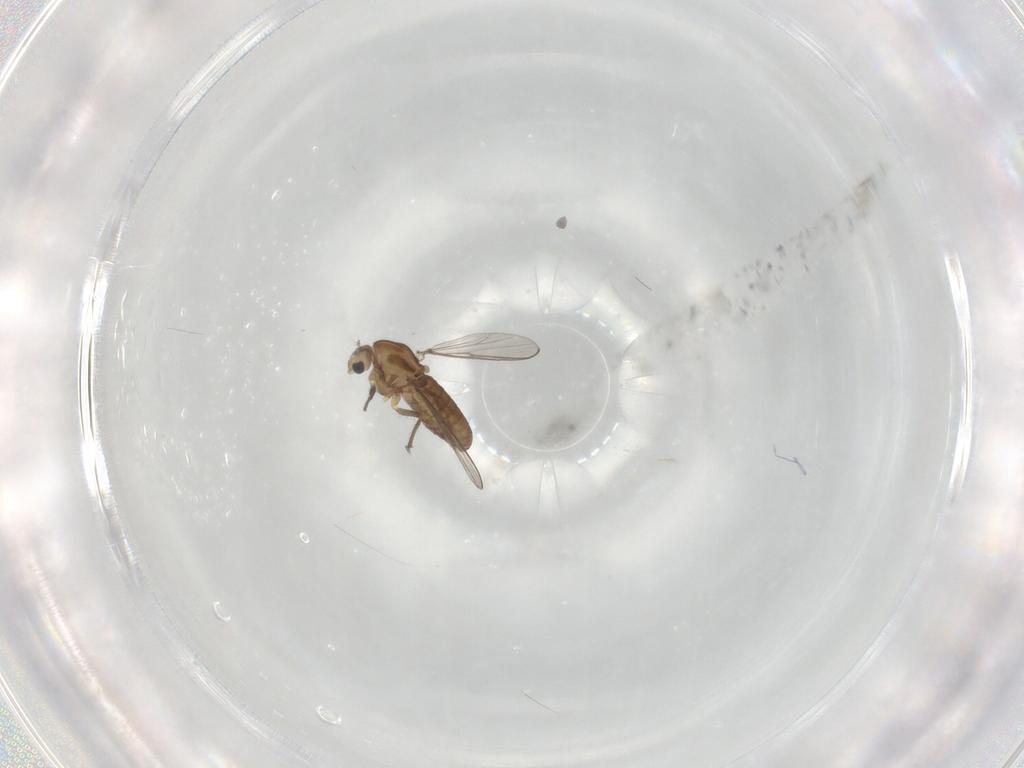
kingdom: Animalia
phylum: Arthropoda
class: Insecta
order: Diptera
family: Chironomidae
